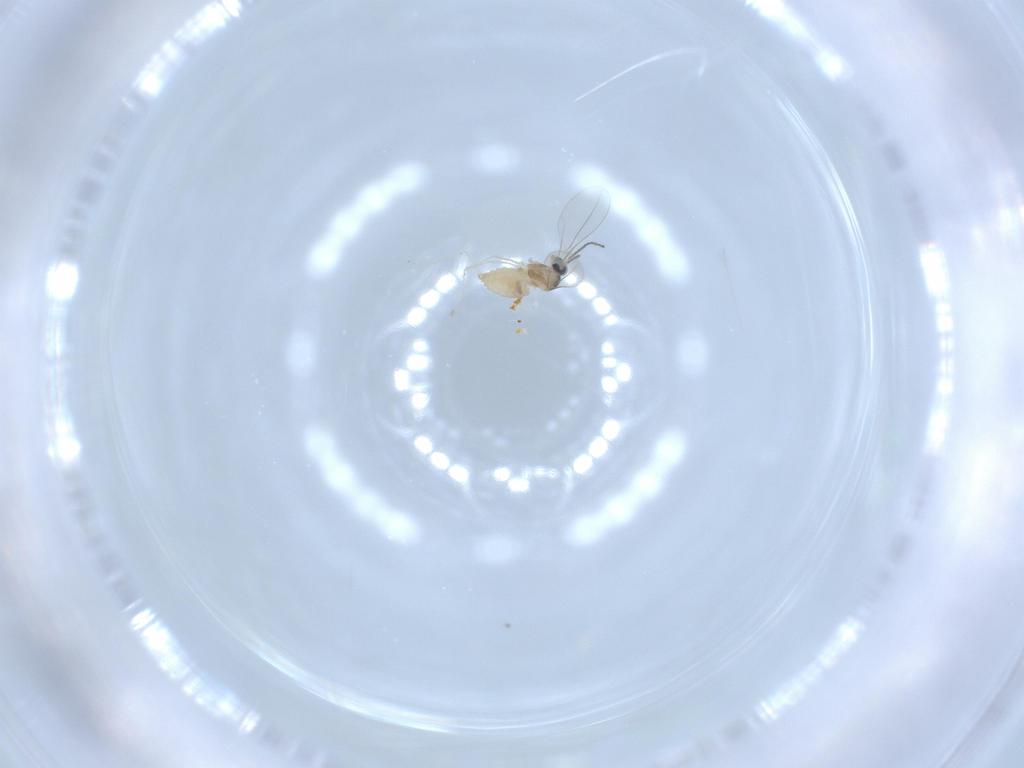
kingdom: Animalia
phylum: Arthropoda
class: Insecta
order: Diptera
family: Cecidomyiidae
